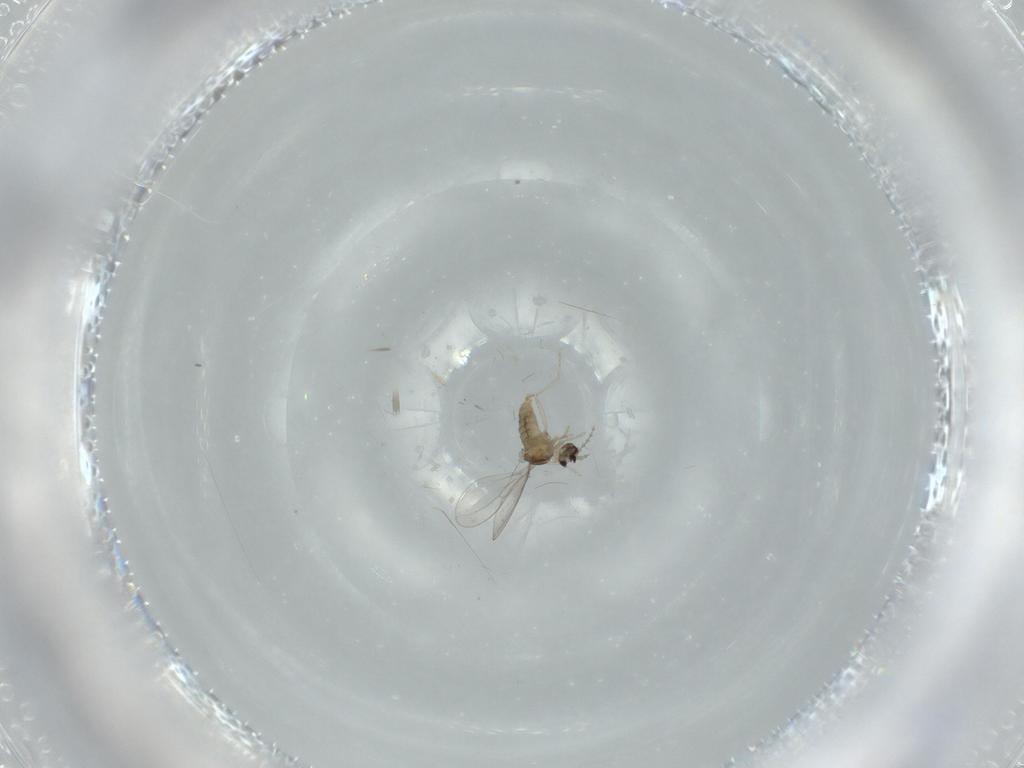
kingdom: Animalia
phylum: Arthropoda
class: Insecta
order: Diptera
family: Cecidomyiidae
